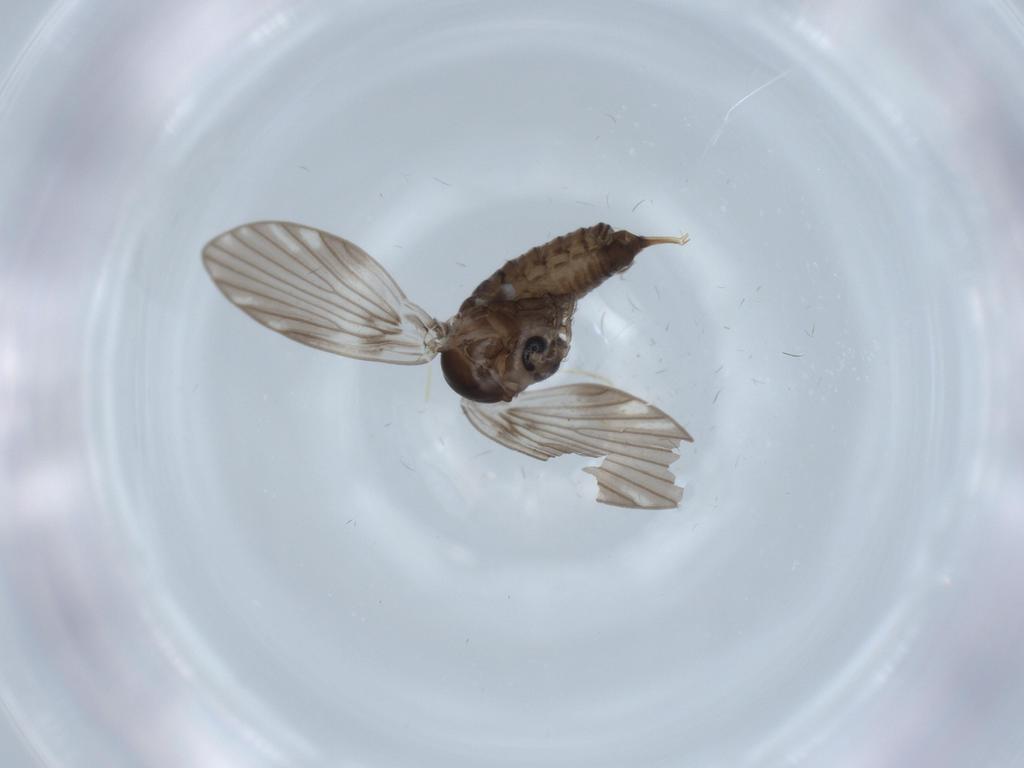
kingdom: Animalia
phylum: Arthropoda
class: Insecta
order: Diptera
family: Psychodidae
